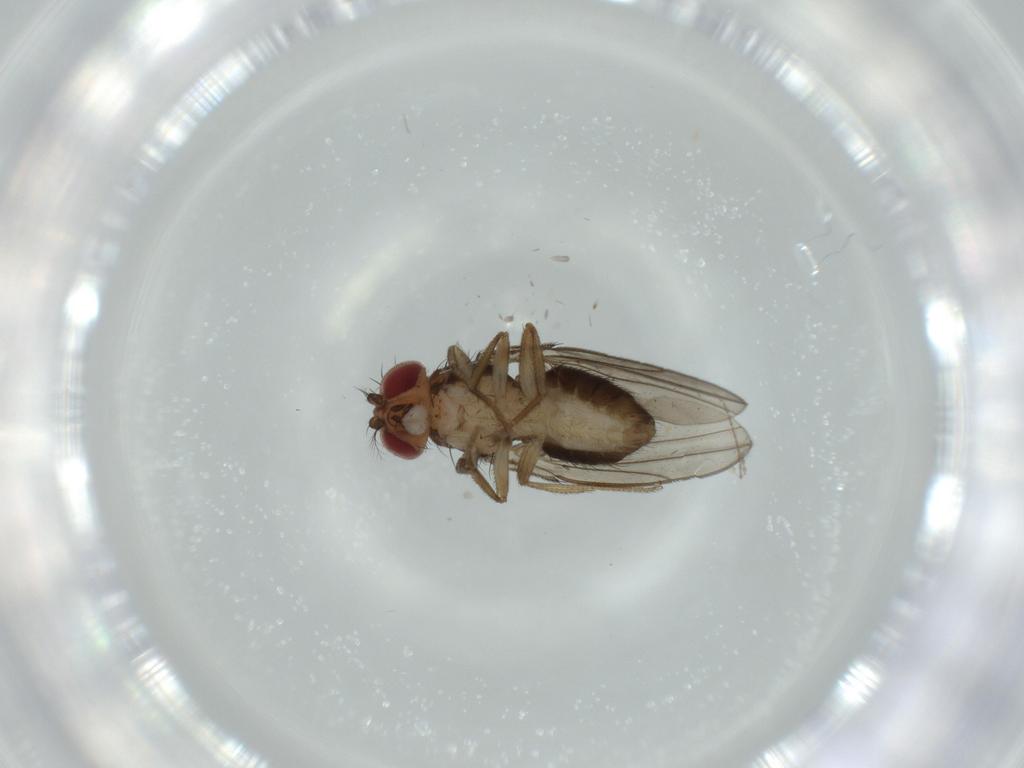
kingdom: Animalia
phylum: Arthropoda
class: Insecta
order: Diptera
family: Drosophilidae
